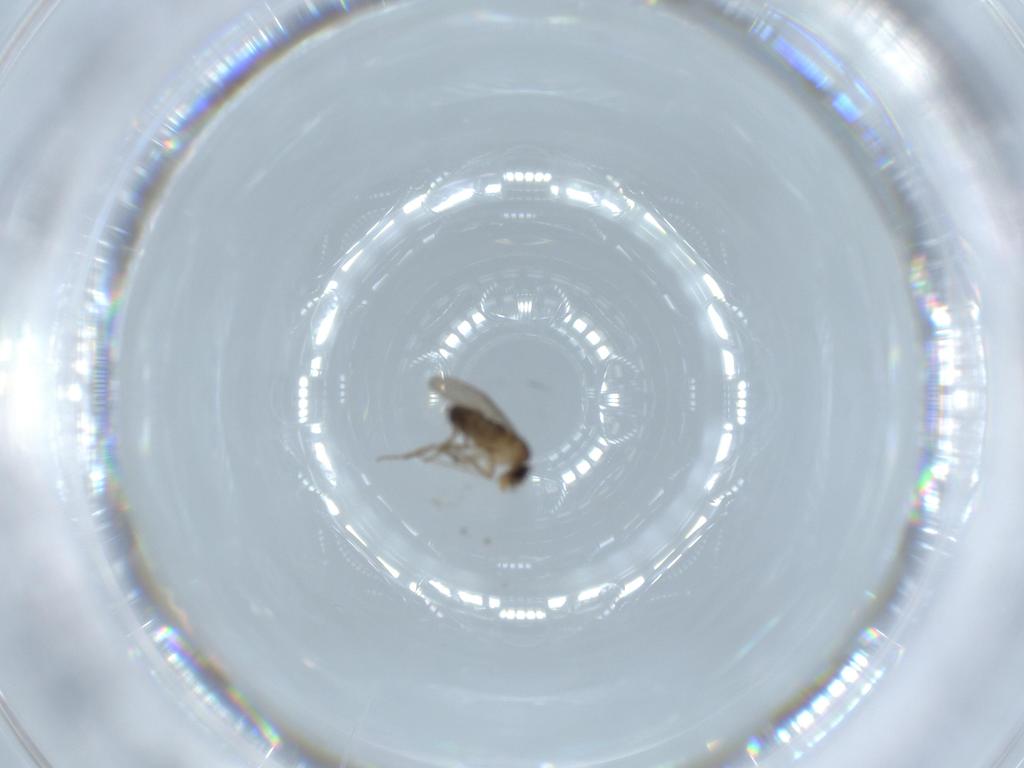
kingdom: Animalia
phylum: Arthropoda
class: Insecta
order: Diptera
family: Phoridae
